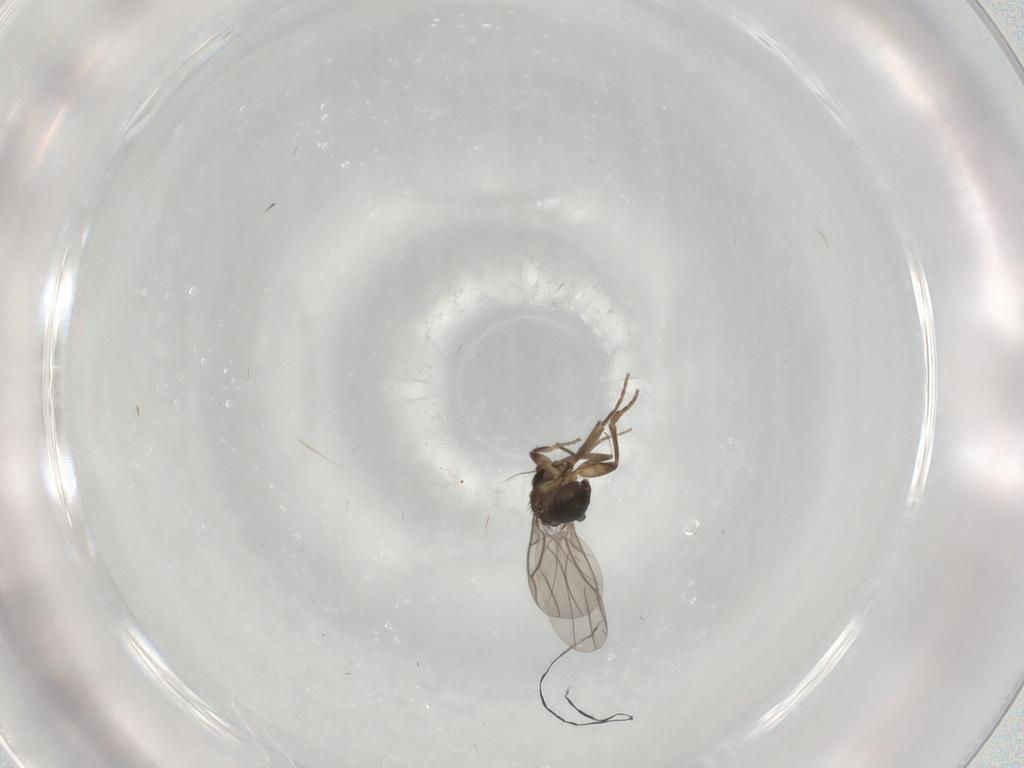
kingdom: Animalia
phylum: Arthropoda
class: Insecta
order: Diptera
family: Phoridae
